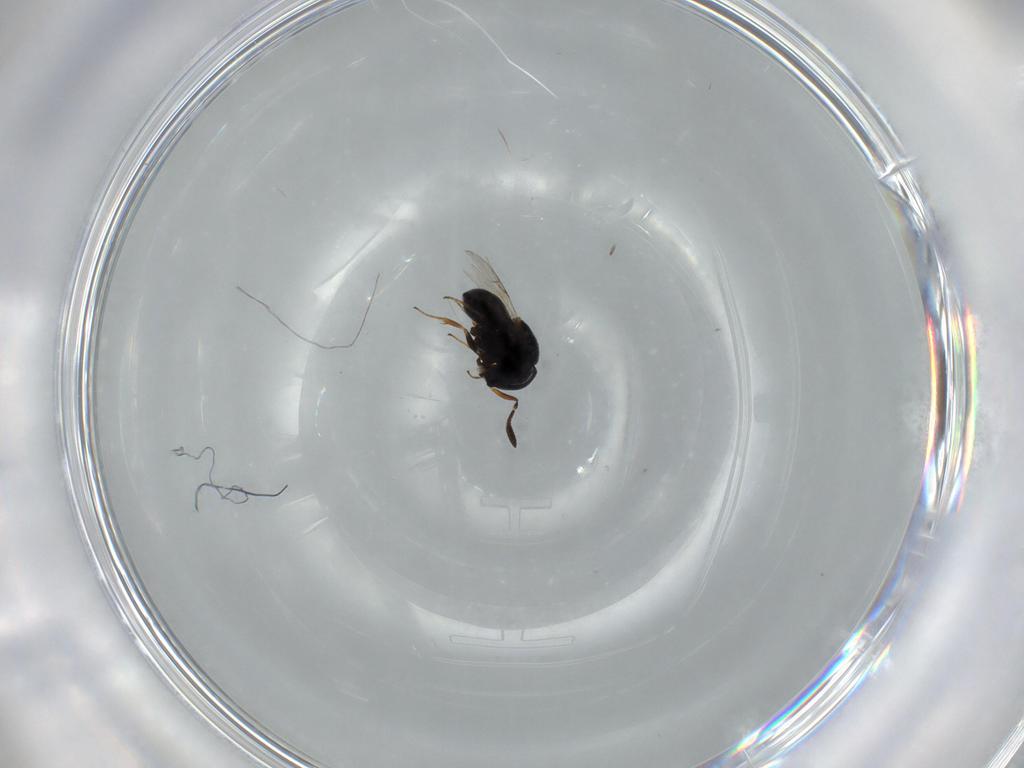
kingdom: Animalia
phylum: Arthropoda
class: Insecta
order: Hymenoptera
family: Scelionidae
